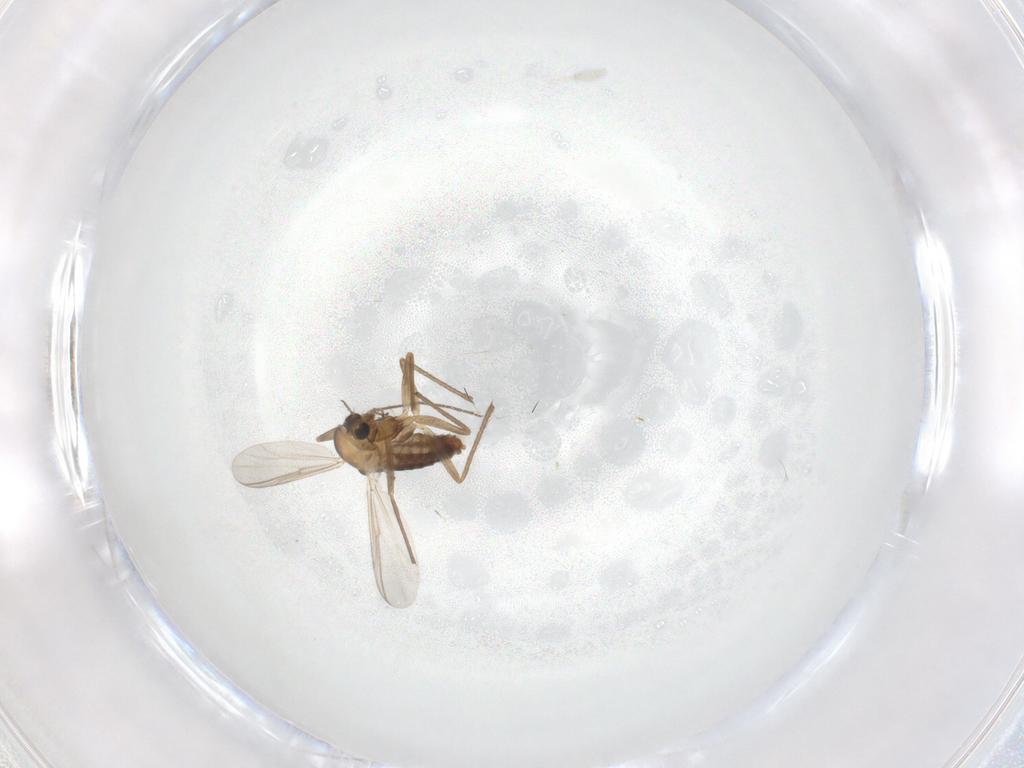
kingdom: Animalia
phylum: Arthropoda
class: Insecta
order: Diptera
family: Chironomidae
